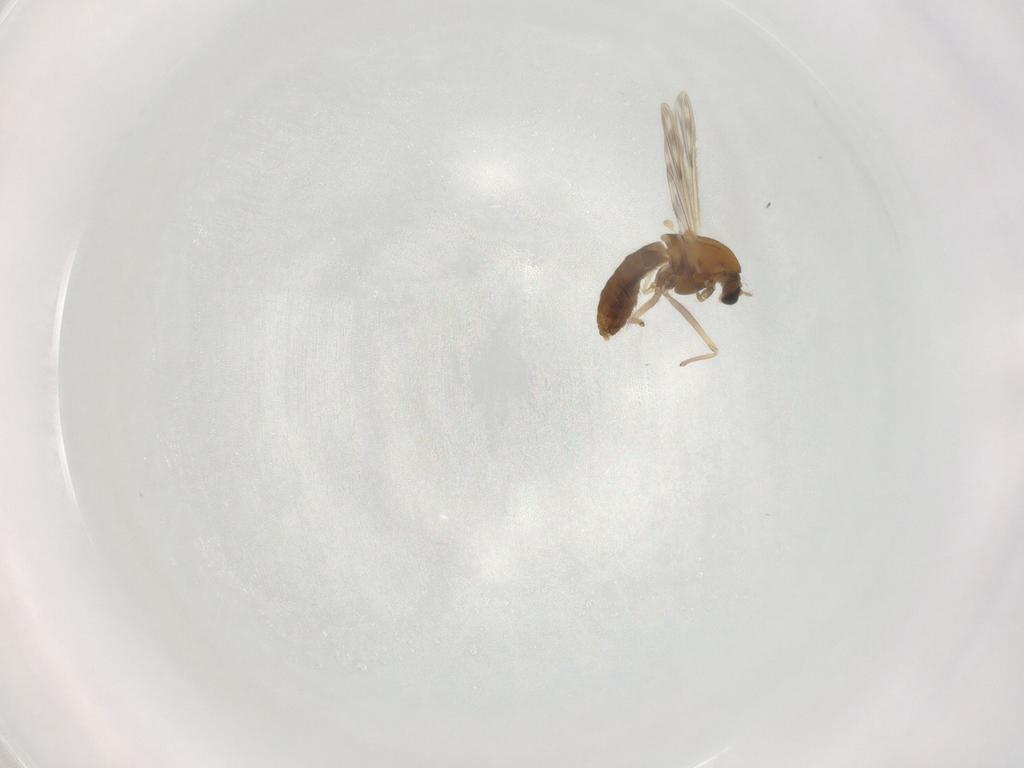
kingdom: Animalia
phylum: Arthropoda
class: Insecta
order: Diptera
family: Chironomidae
